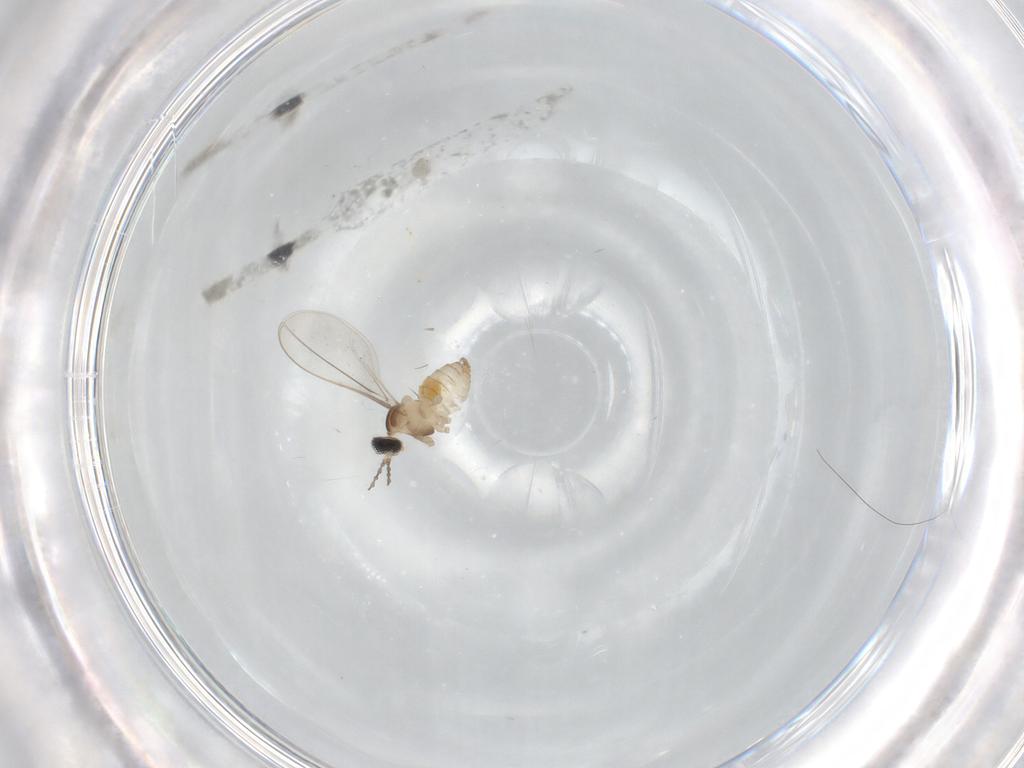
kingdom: Animalia
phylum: Arthropoda
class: Insecta
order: Diptera
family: Cecidomyiidae
